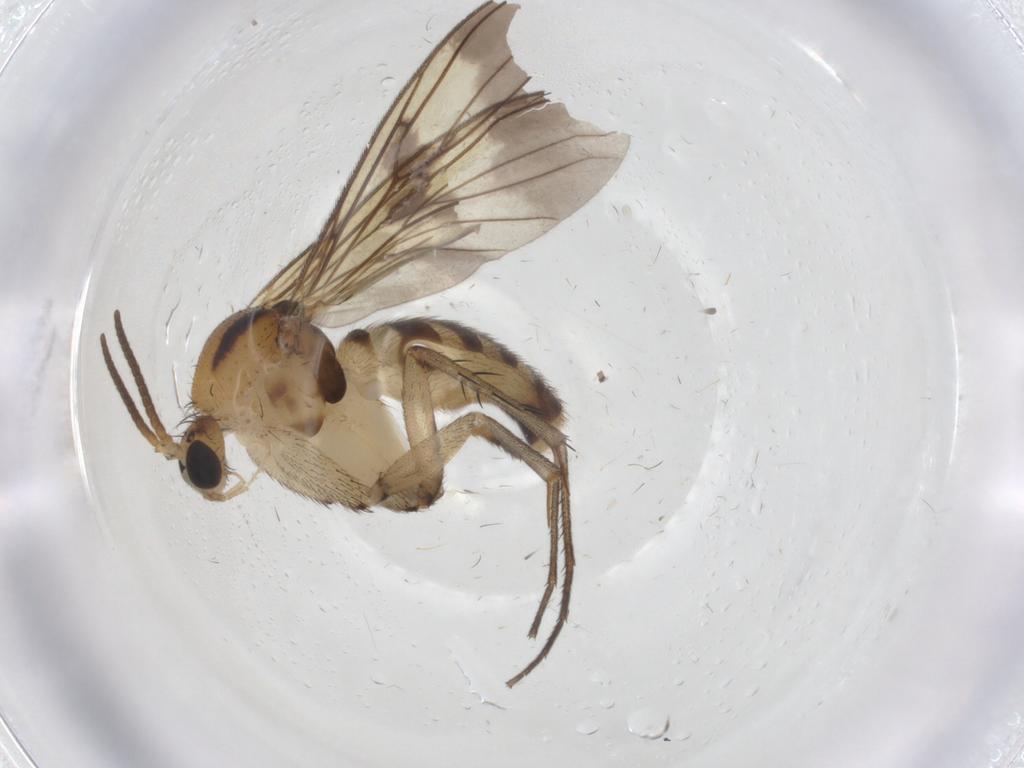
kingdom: Animalia
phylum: Arthropoda
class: Insecta
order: Diptera
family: Mycetophilidae
